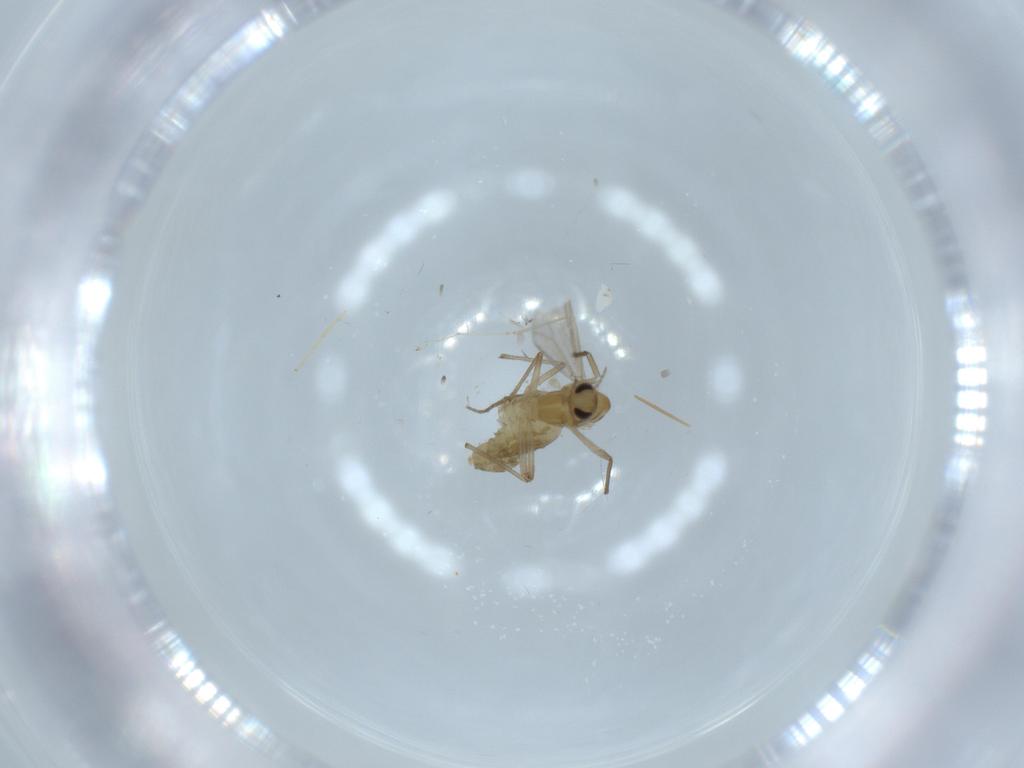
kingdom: Animalia
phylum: Arthropoda
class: Insecta
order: Diptera
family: Chironomidae
